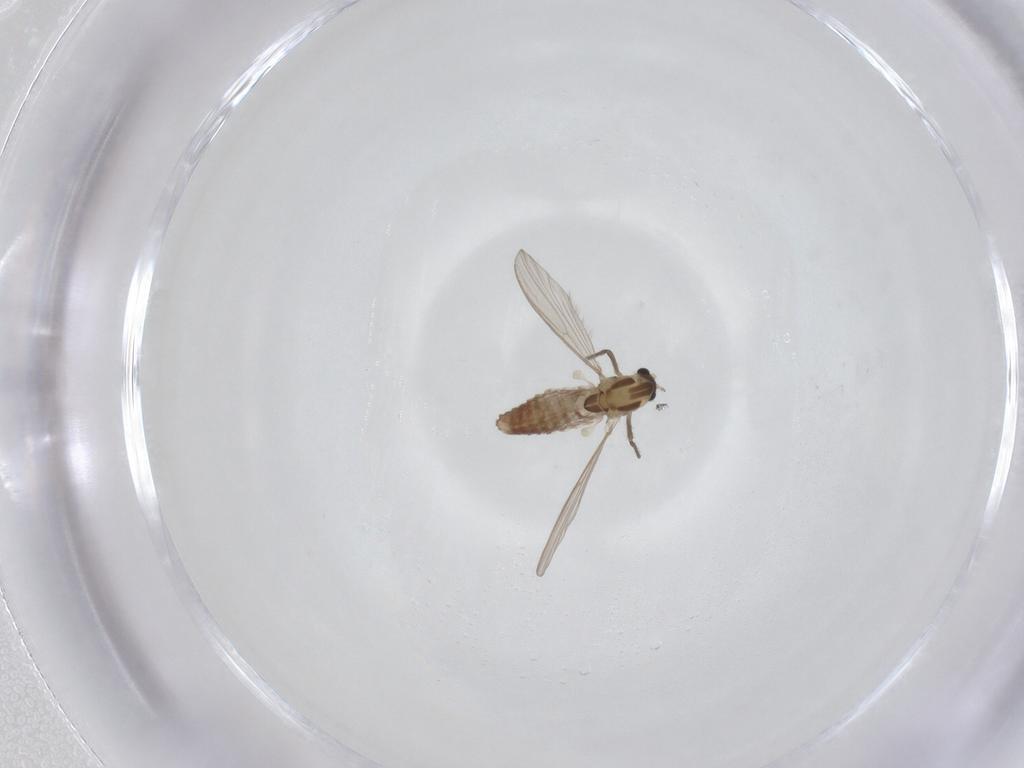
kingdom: Animalia
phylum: Arthropoda
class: Insecta
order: Diptera
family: Chironomidae
